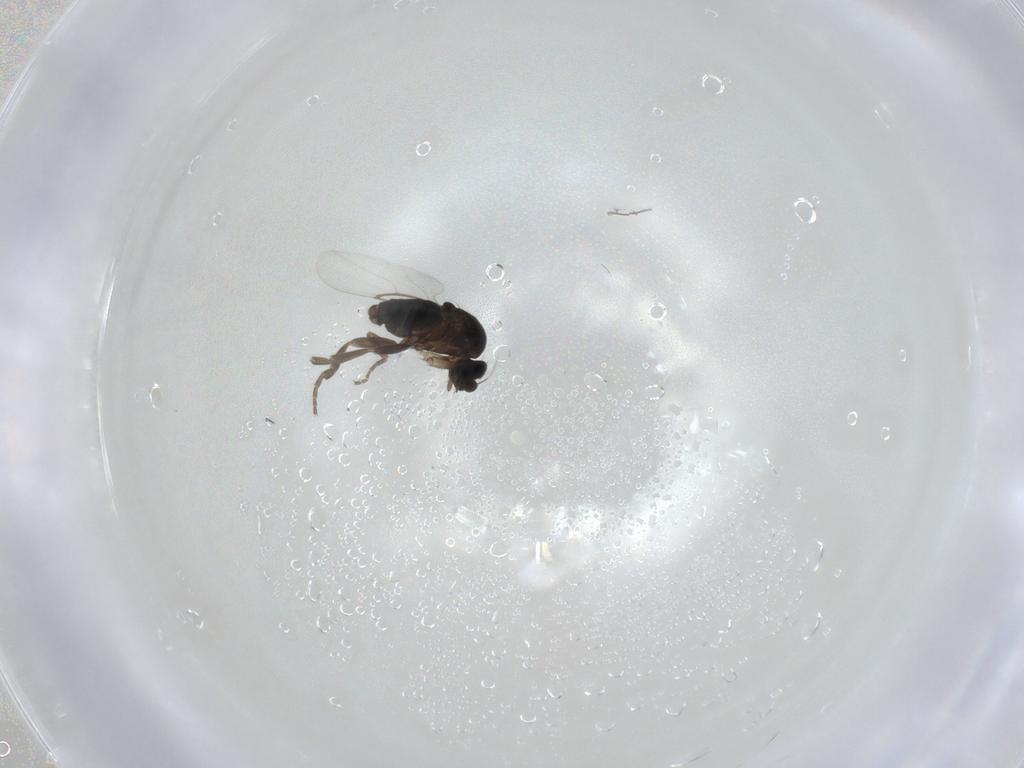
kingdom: Animalia
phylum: Arthropoda
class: Insecta
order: Diptera
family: Phoridae
